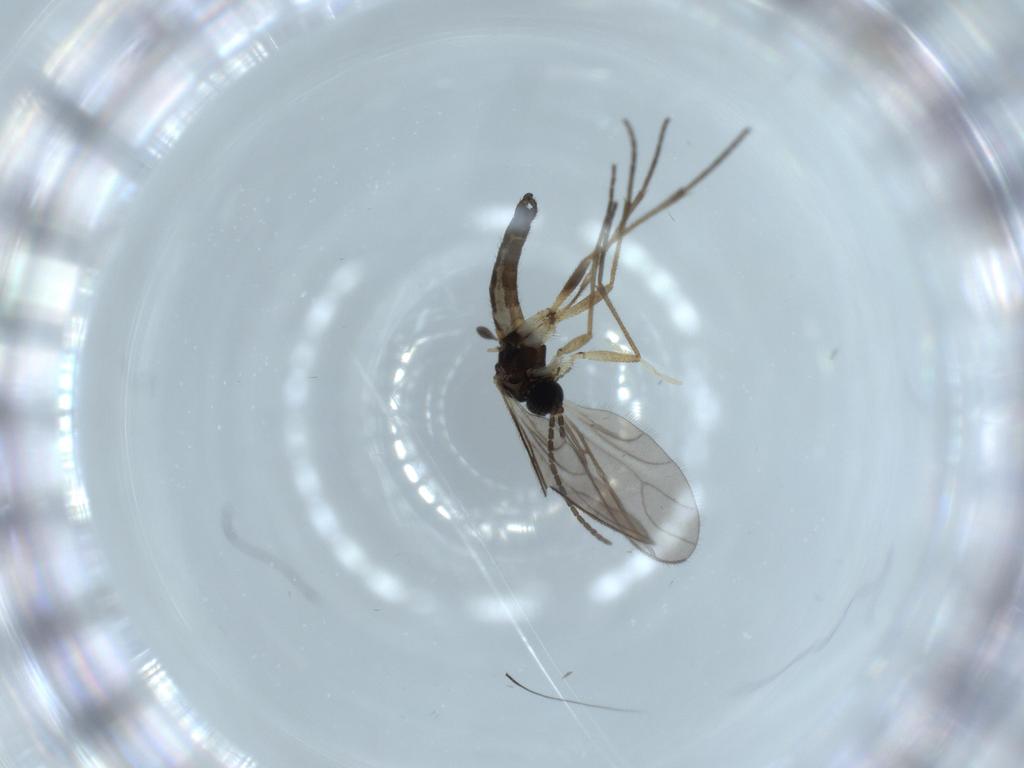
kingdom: Animalia
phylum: Arthropoda
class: Insecta
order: Diptera
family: Sciaridae
